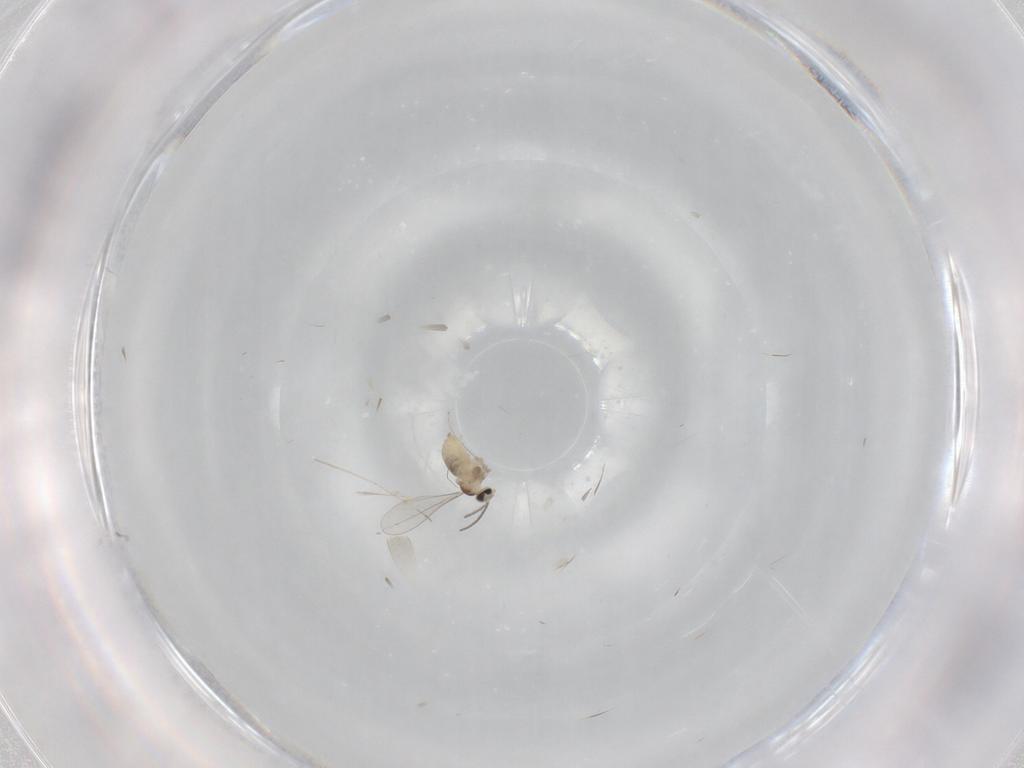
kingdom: Animalia
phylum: Arthropoda
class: Insecta
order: Diptera
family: Cecidomyiidae
